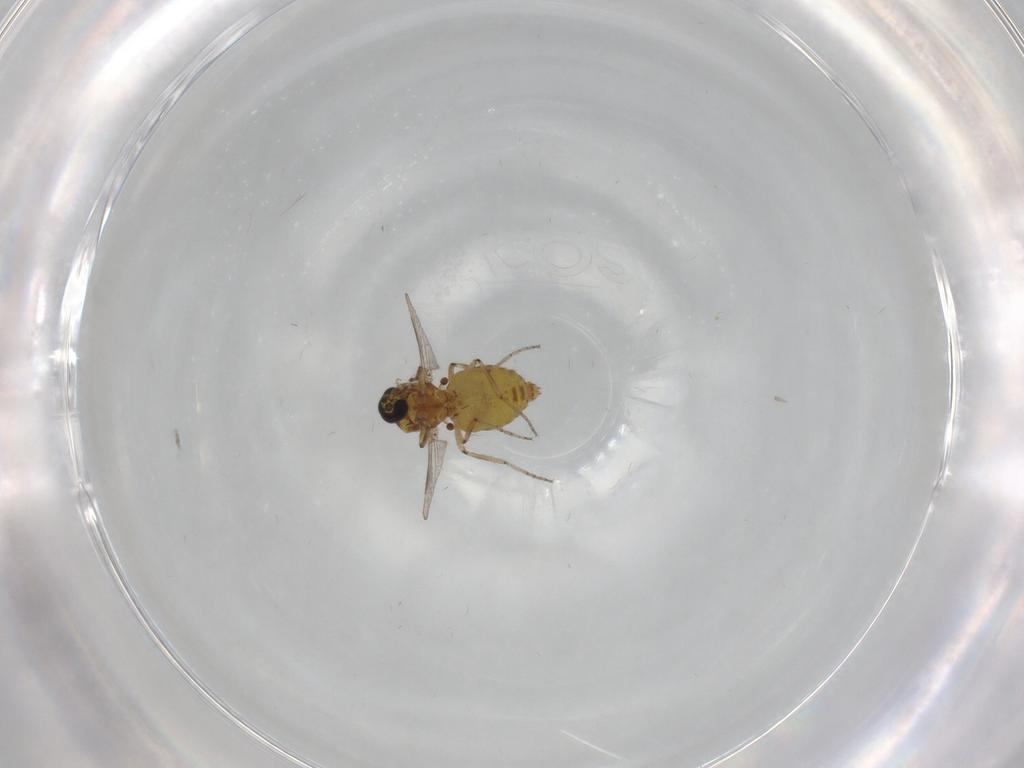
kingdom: Animalia
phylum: Arthropoda
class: Insecta
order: Diptera
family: Ceratopogonidae
